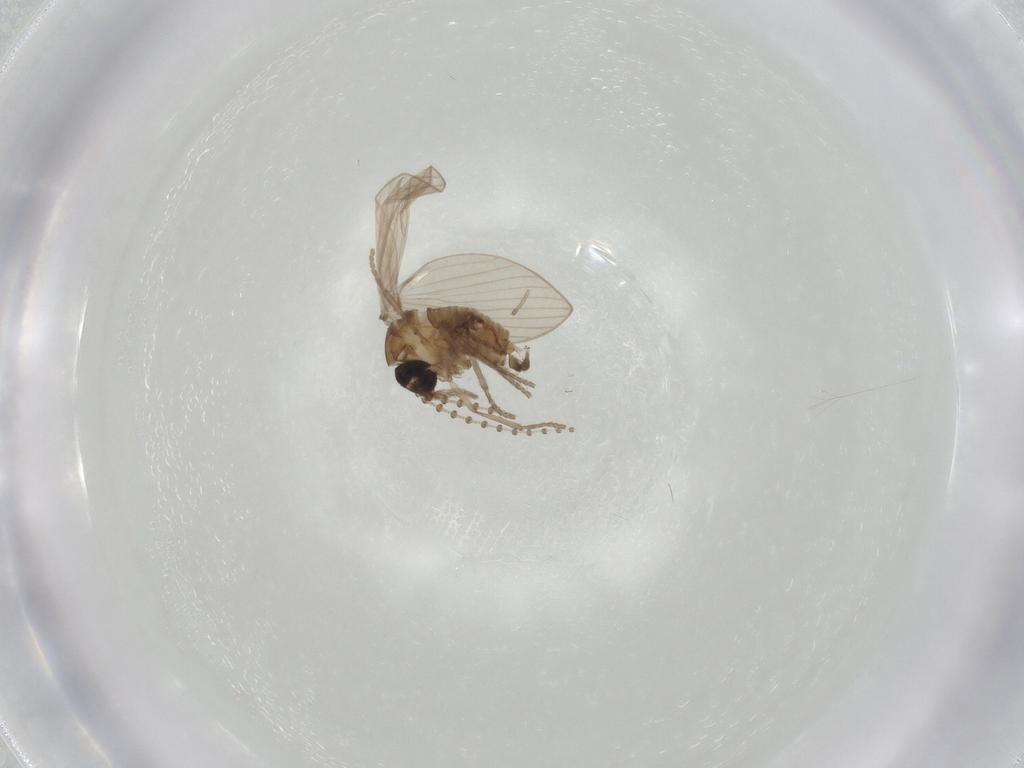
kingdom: Animalia
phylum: Arthropoda
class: Insecta
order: Diptera
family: Psychodidae
